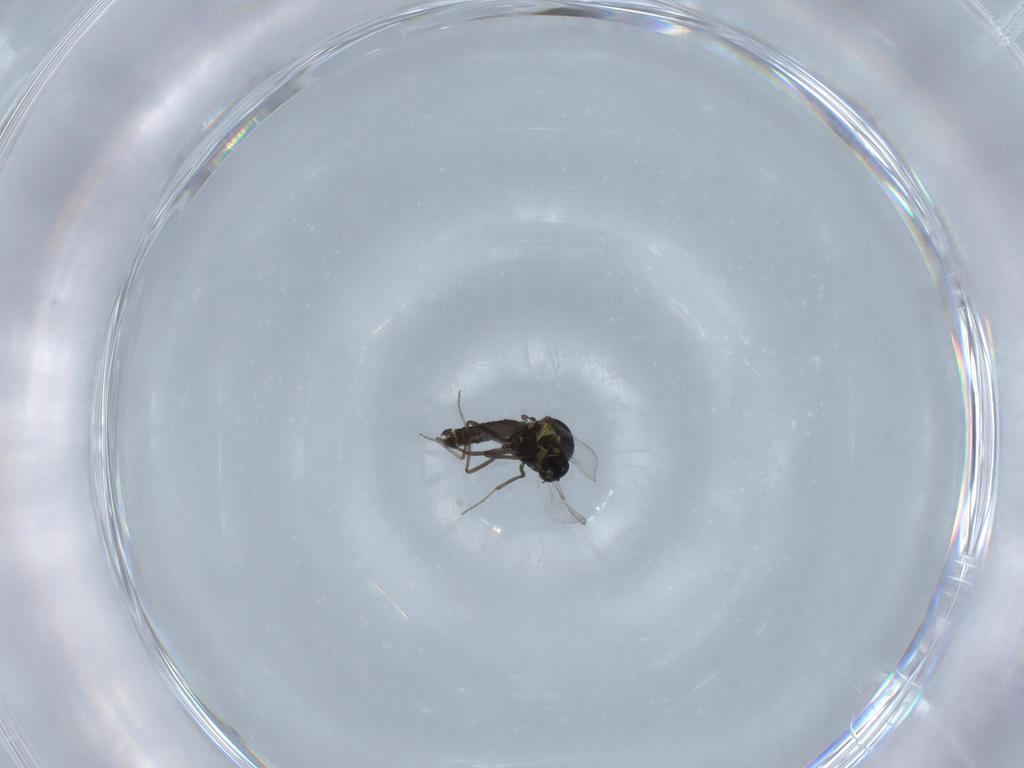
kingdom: Animalia
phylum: Arthropoda
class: Insecta
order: Diptera
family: Ceratopogonidae
